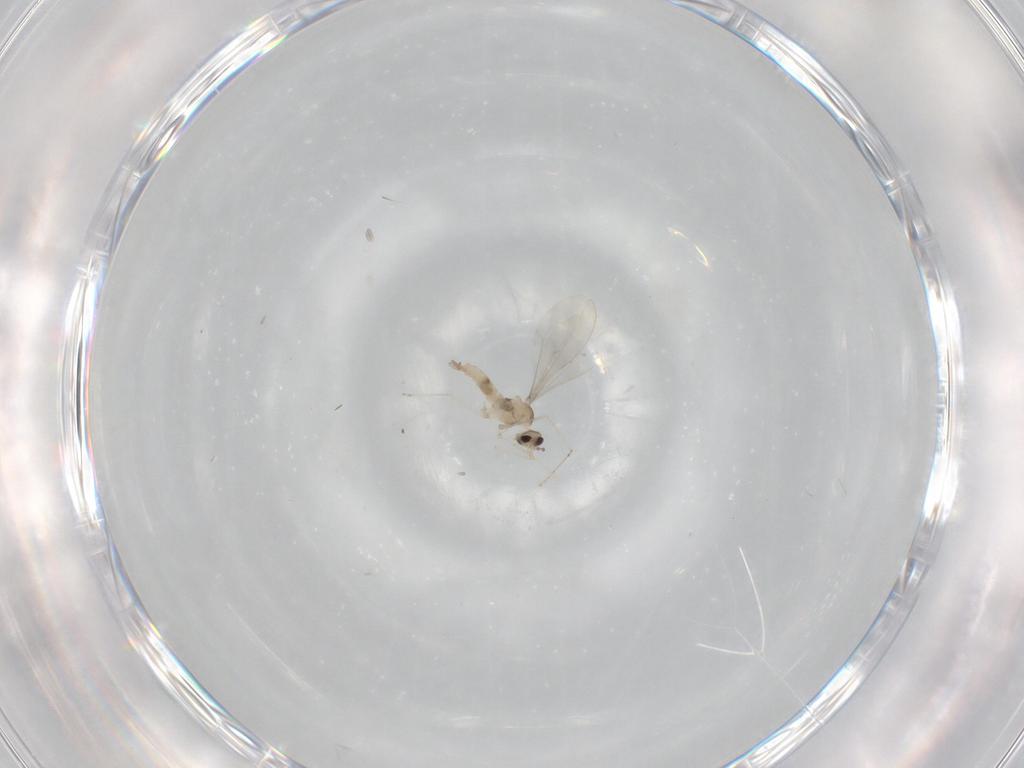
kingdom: Animalia
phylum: Arthropoda
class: Insecta
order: Diptera
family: Cecidomyiidae
